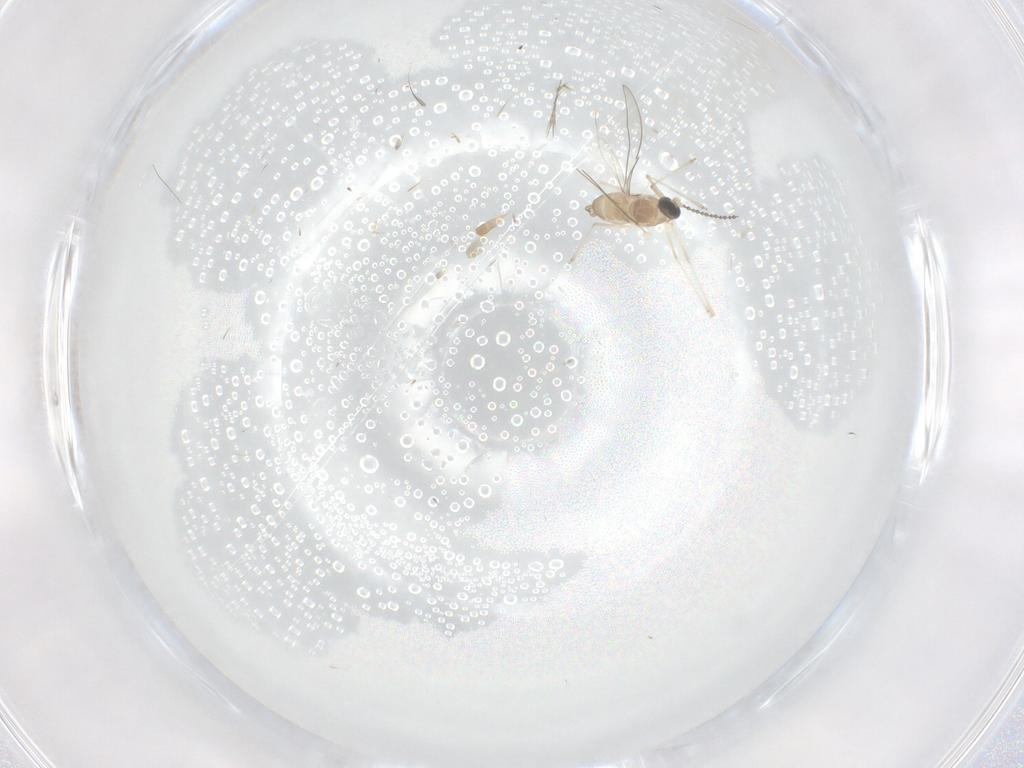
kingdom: Animalia
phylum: Arthropoda
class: Insecta
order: Diptera
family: Cecidomyiidae
